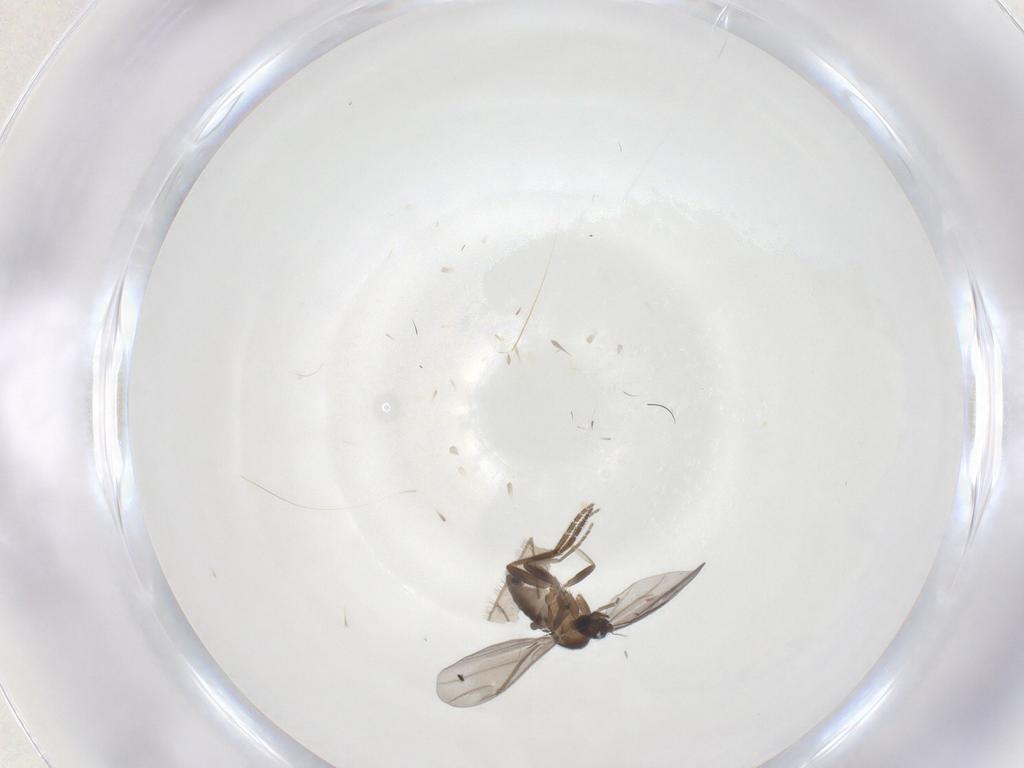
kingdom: Animalia
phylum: Arthropoda
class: Insecta
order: Diptera
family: Phoridae
